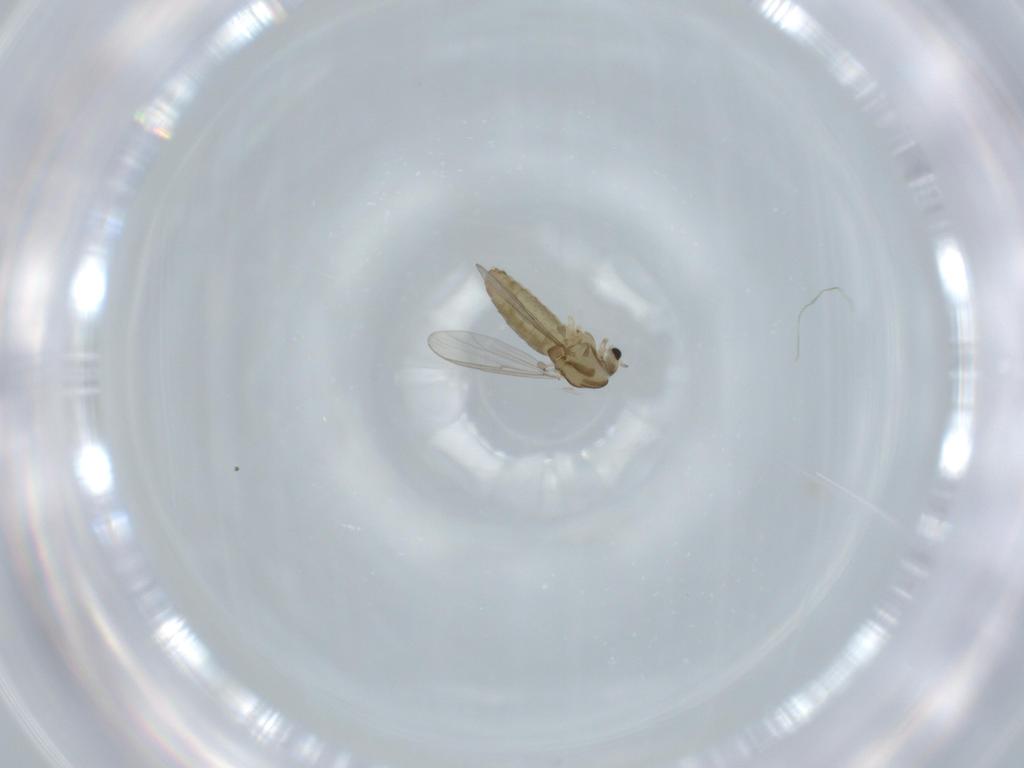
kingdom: Animalia
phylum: Arthropoda
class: Insecta
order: Diptera
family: Chironomidae
